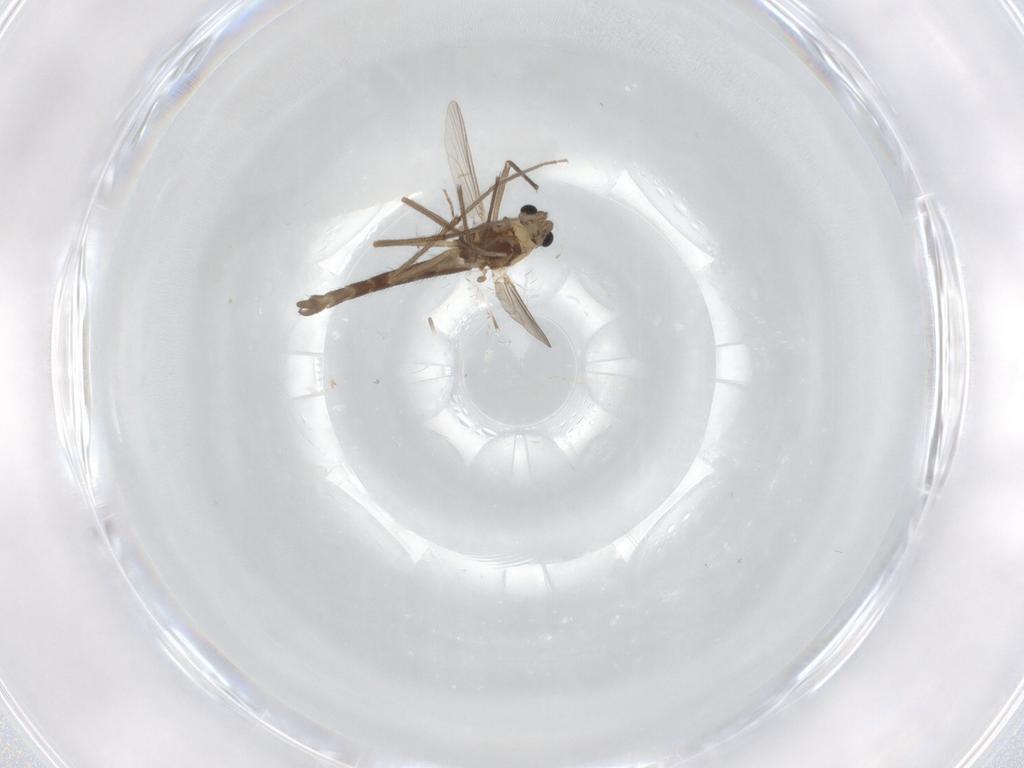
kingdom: Animalia
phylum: Arthropoda
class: Insecta
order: Diptera
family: Chironomidae
